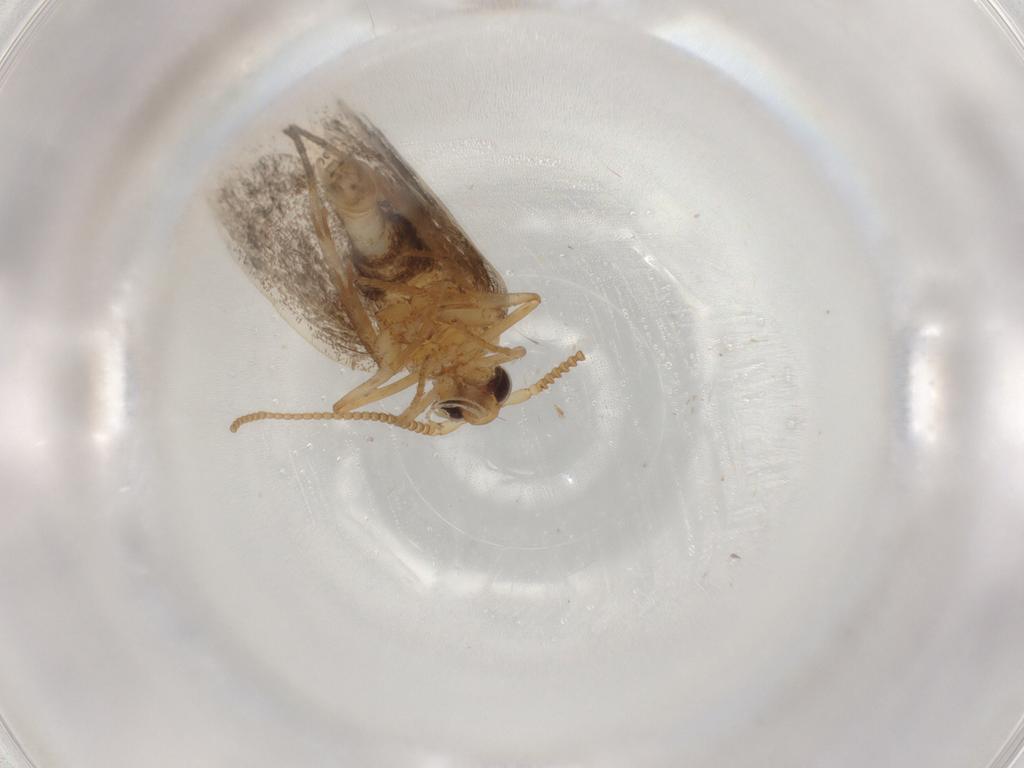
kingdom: Animalia
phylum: Arthropoda
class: Insecta
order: Lepidoptera
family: Lecithoceridae
